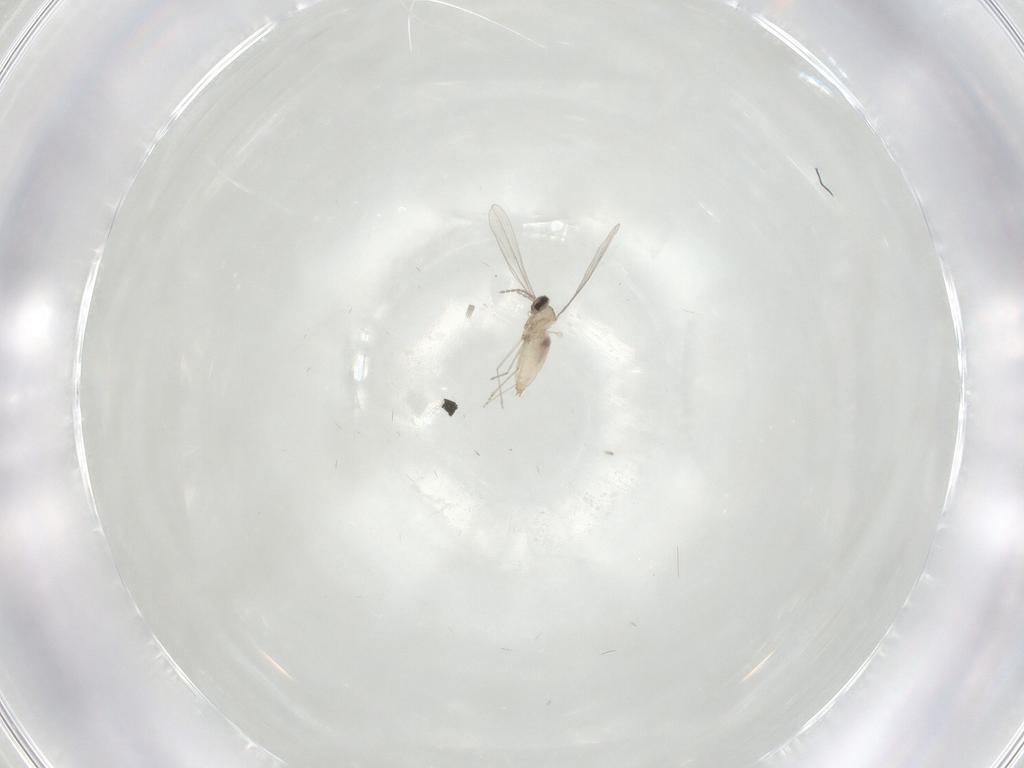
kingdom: Animalia
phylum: Arthropoda
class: Insecta
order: Diptera
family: Cecidomyiidae
